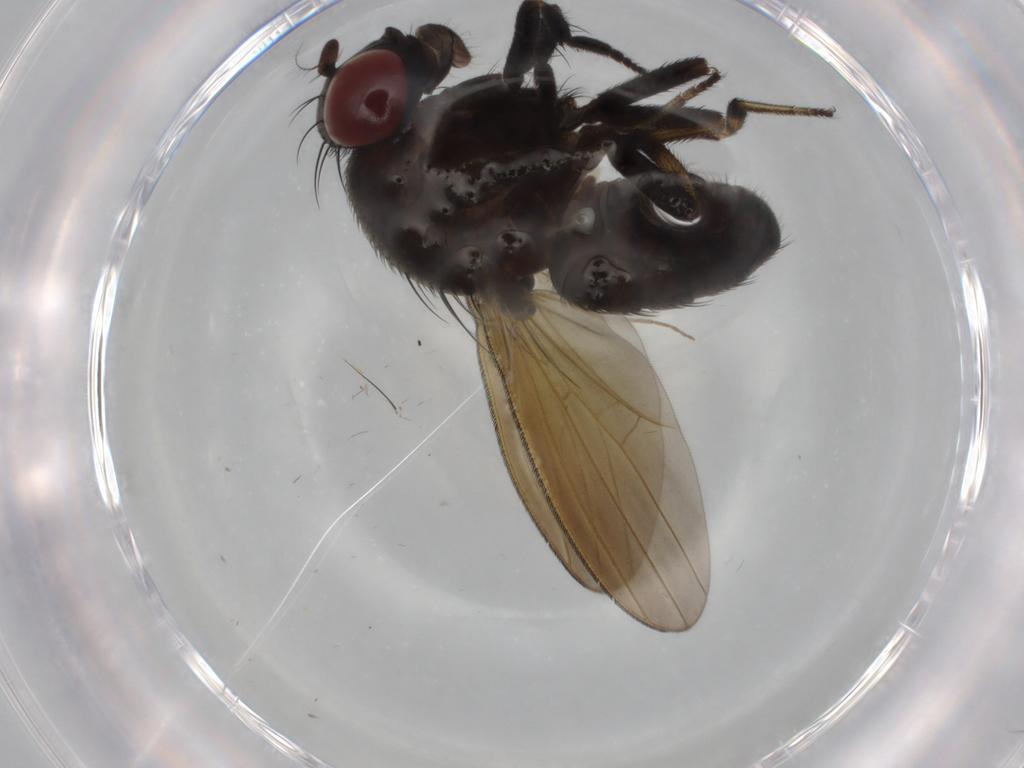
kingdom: Animalia
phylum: Arthropoda
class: Insecta
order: Diptera
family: Lauxaniidae
